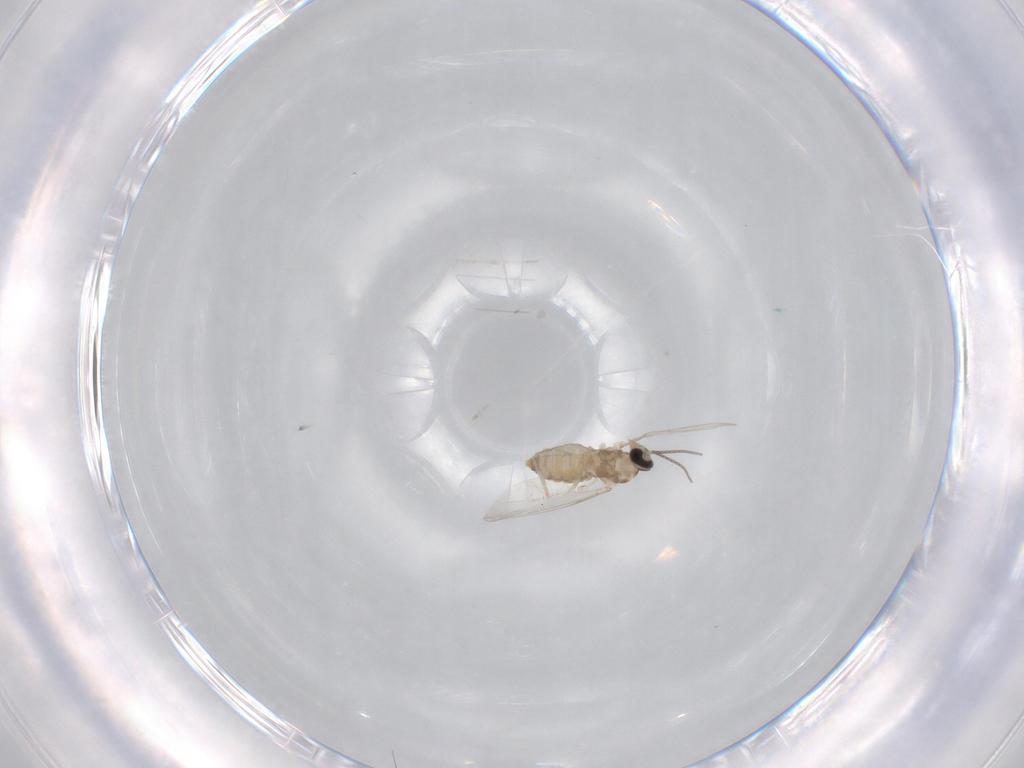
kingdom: Animalia
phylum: Arthropoda
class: Insecta
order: Diptera
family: Cecidomyiidae
